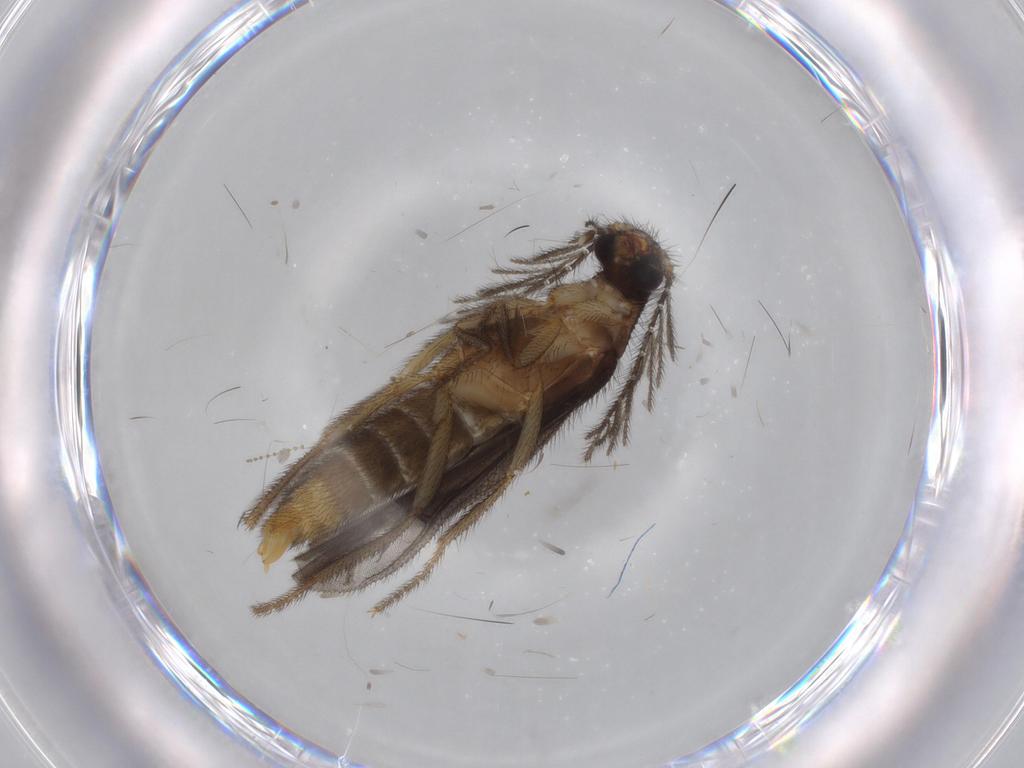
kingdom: Animalia
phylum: Arthropoda
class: Insecta
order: Coleoptera
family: Phengodidae
